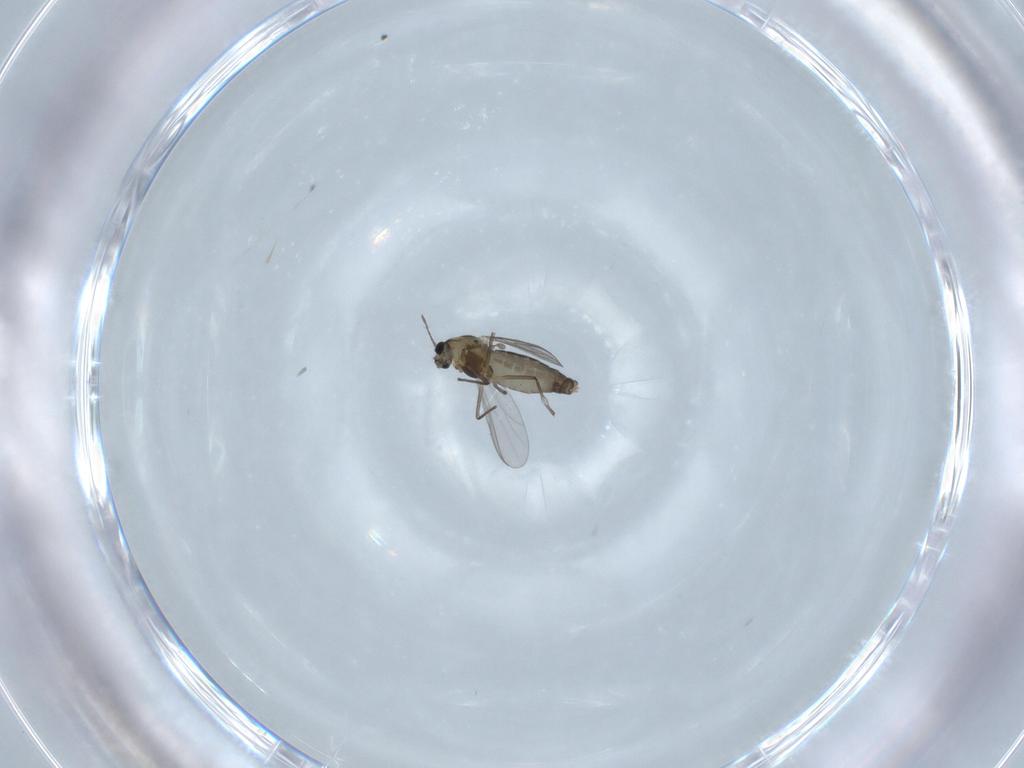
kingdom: Animalia
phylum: Arthropoda
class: Insecta
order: Diptera
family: Chironomidae
